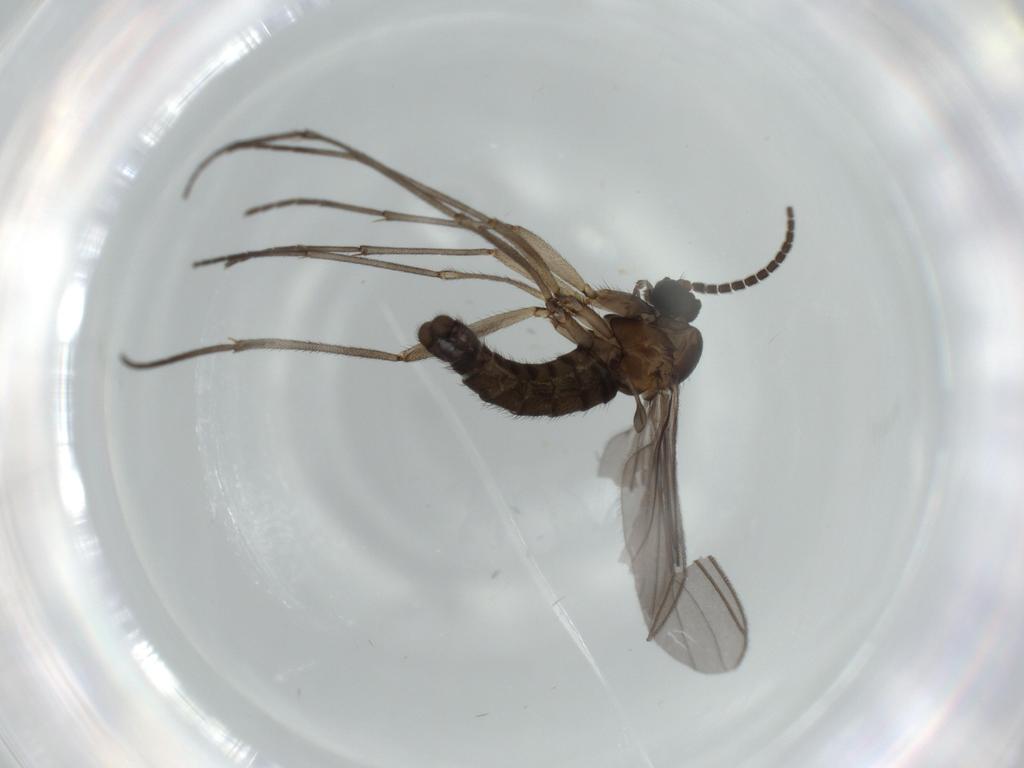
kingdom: Animalia
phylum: Arthropoda
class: Insecta
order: Diptera
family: Sciaridae
